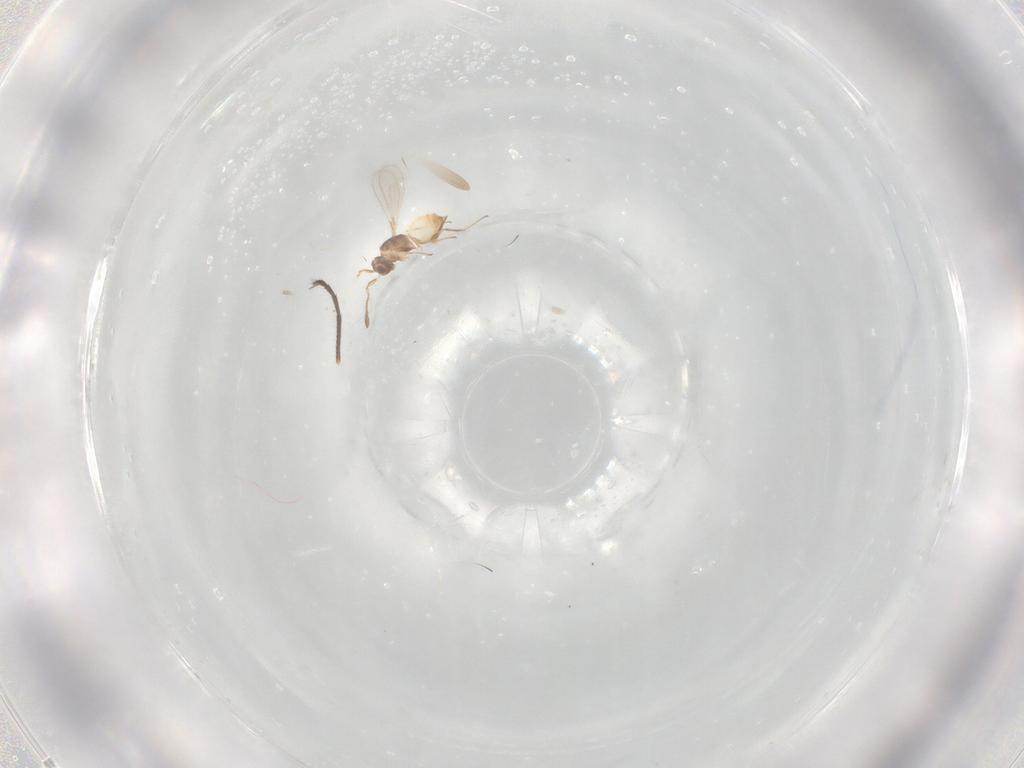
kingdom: Animalia
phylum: Arthropoda
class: Insecta
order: Hymenoptera
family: Mymaridae
